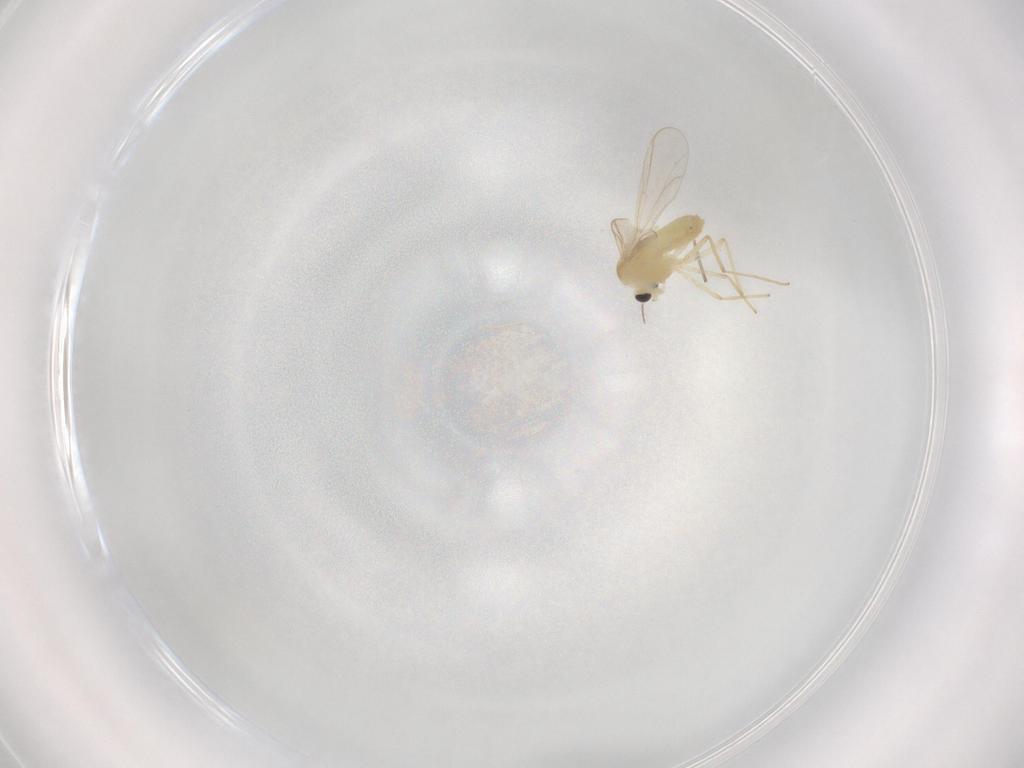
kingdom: Animalia
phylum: Arthropoda
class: Insecta
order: Diptera
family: Chironomidae
